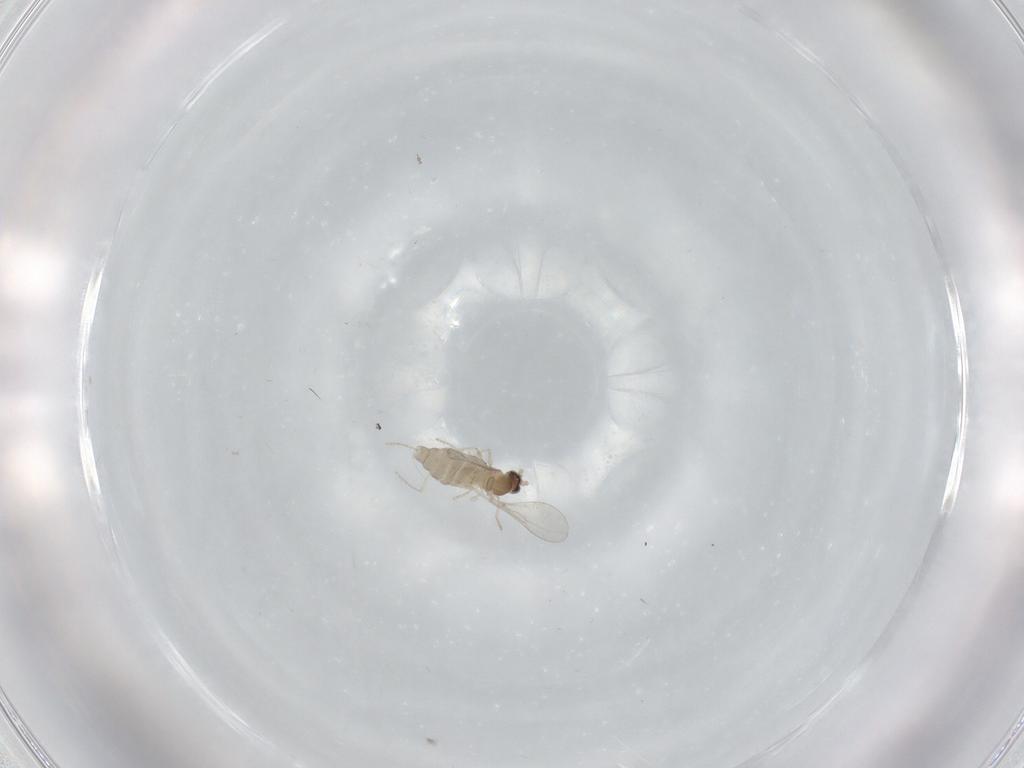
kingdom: Animalia
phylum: Arthropoda
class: Insecta
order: Diptera
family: Cecidomyiidae
